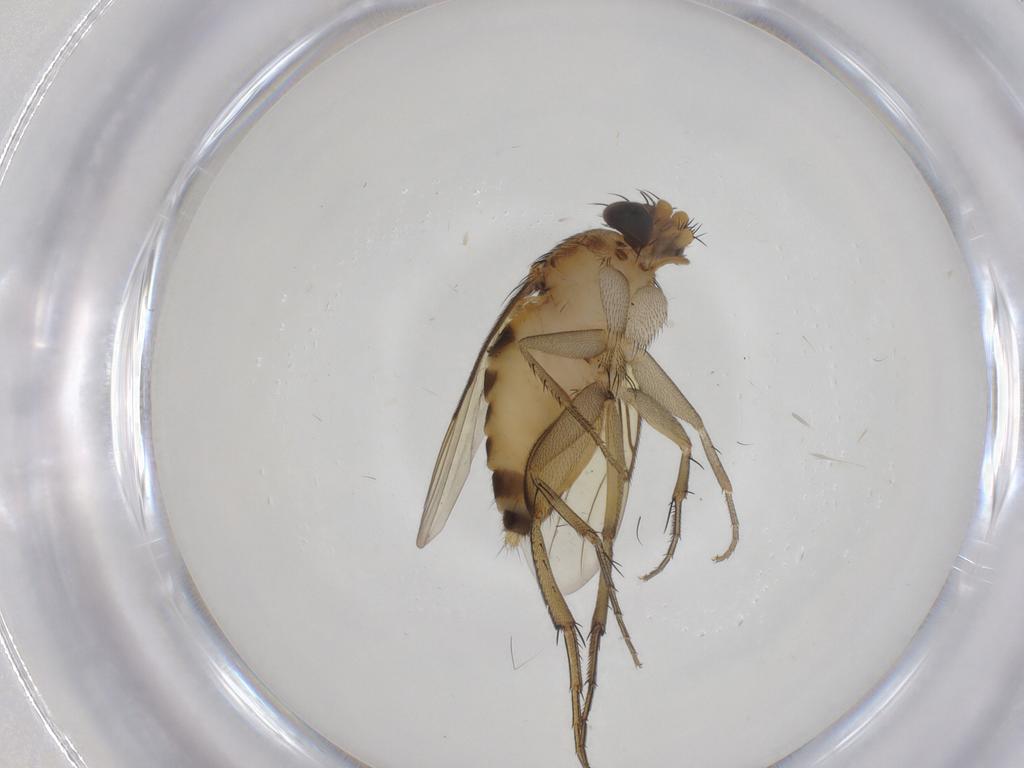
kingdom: Animalia
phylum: Arthropoda
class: Insecta
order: Diptera
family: Phoridae
